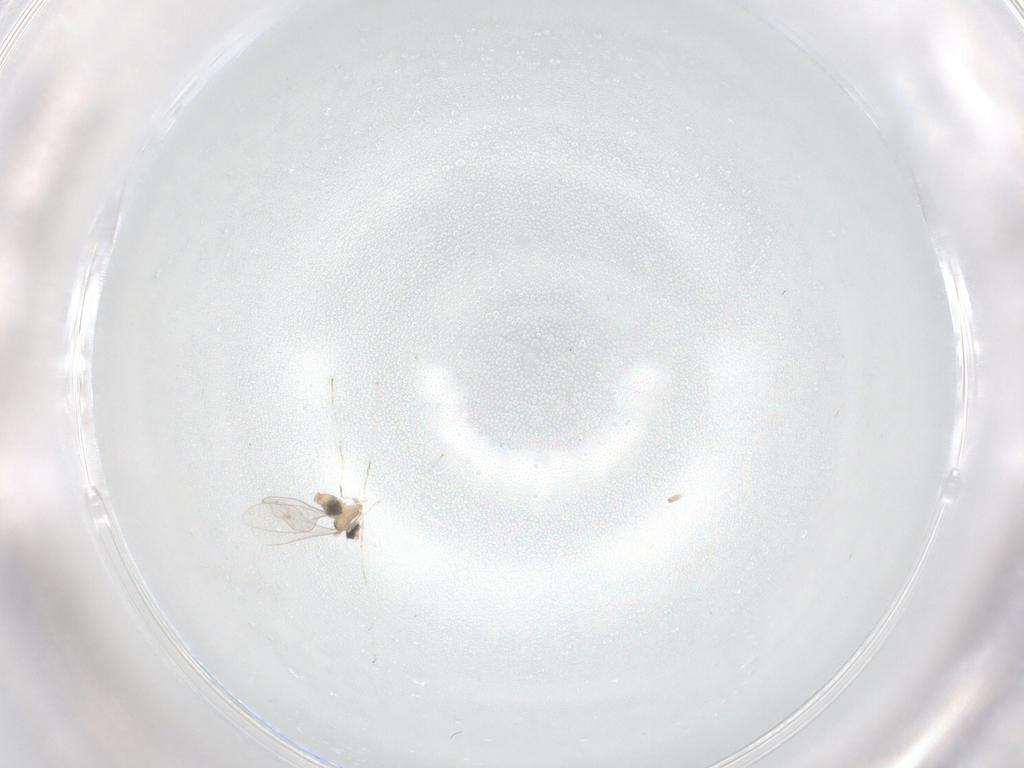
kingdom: Animalia
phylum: Arthropoda
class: Insecta
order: Diptera
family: Cecidomyiidae
